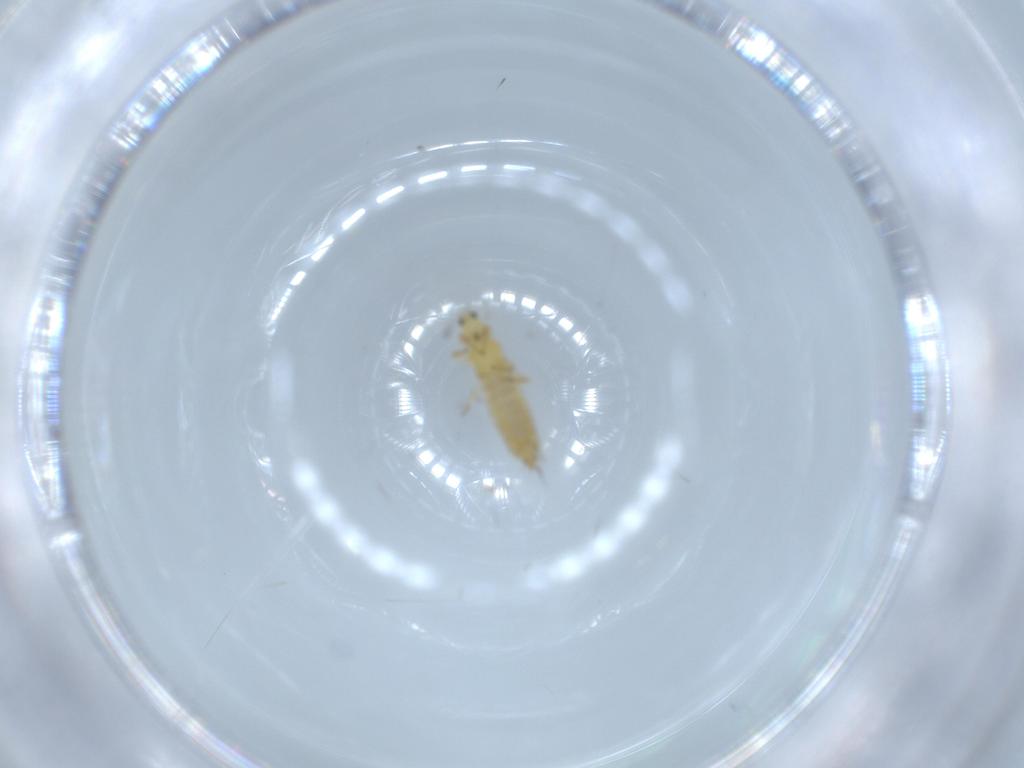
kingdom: Animalia
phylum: Arthropoda
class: Insecta
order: Thysanoptera
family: Thripidae
